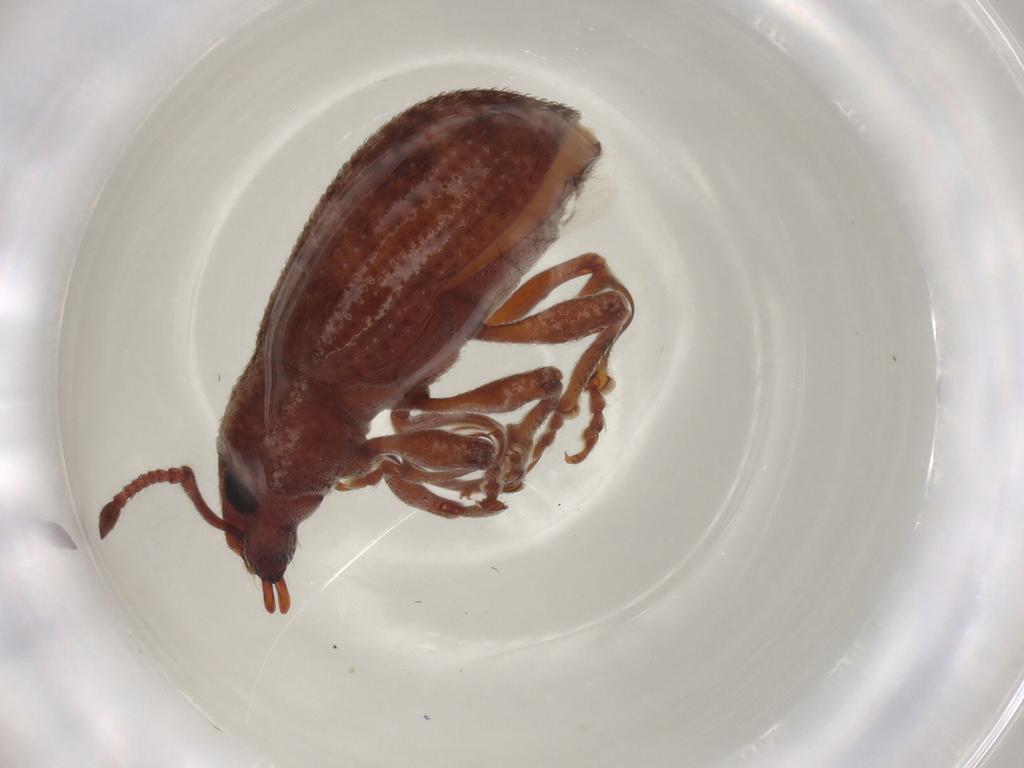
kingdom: Animalia
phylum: Arthropoda
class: Insecta
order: Coleoptera
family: Curculionidae
